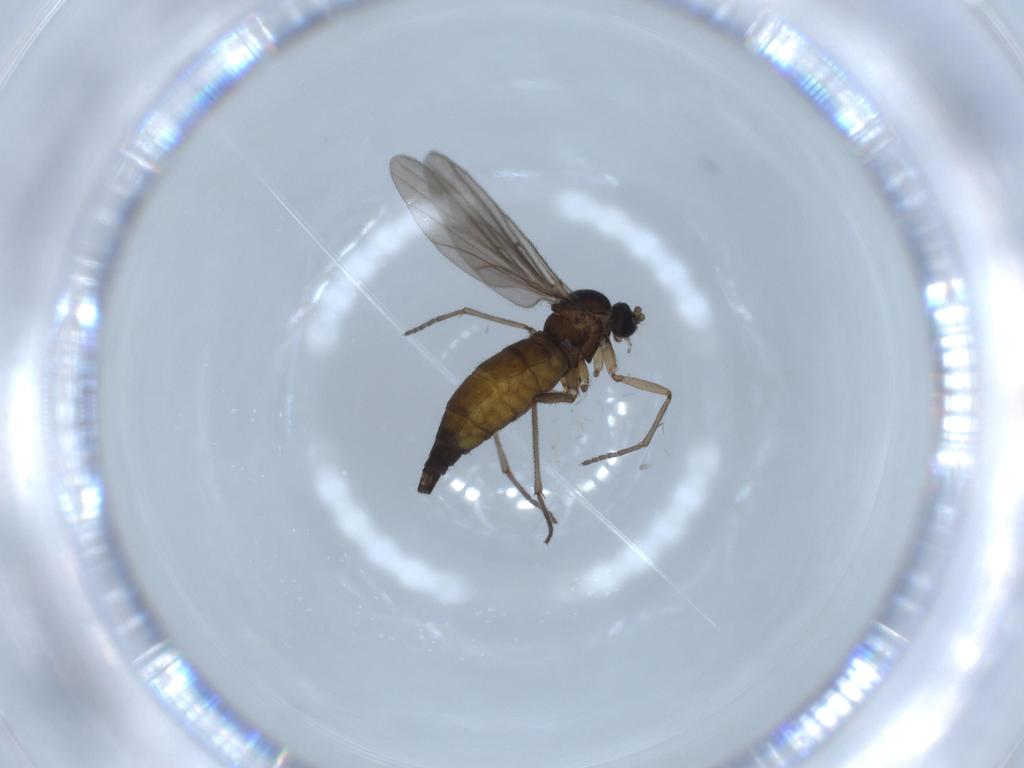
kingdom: Animalia
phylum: Arthropoda
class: Insecta
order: Diptera
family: Sciaridae
